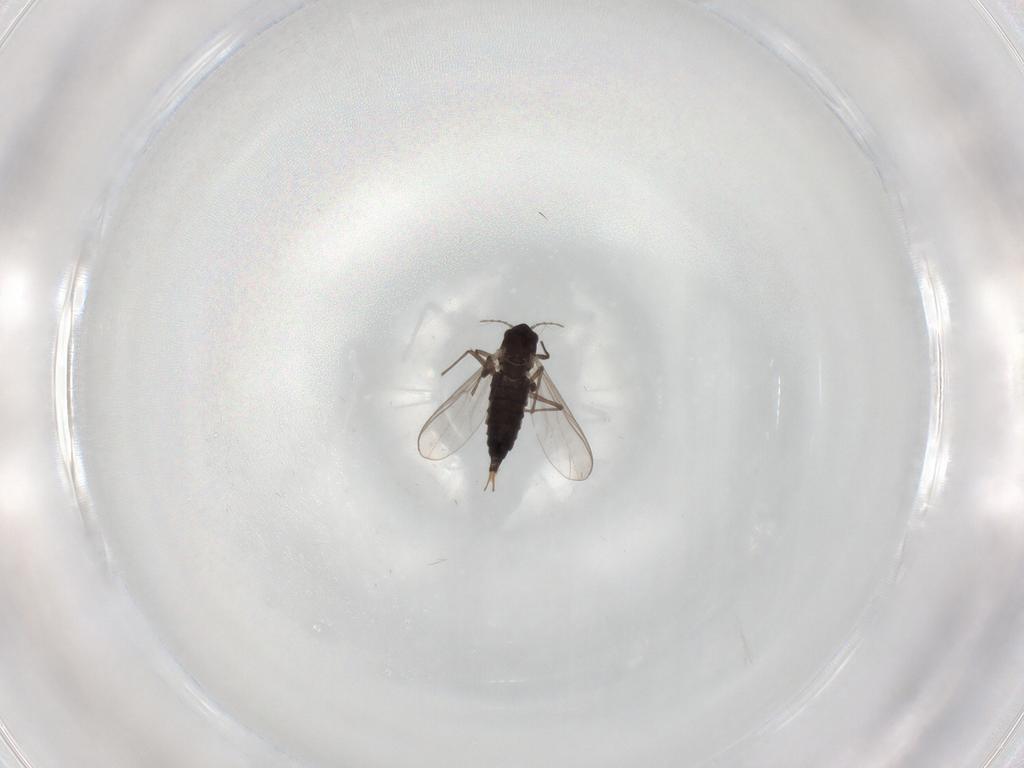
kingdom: Animalia
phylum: Arthropoda
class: Insecta
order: Diptera
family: Chironomidae
